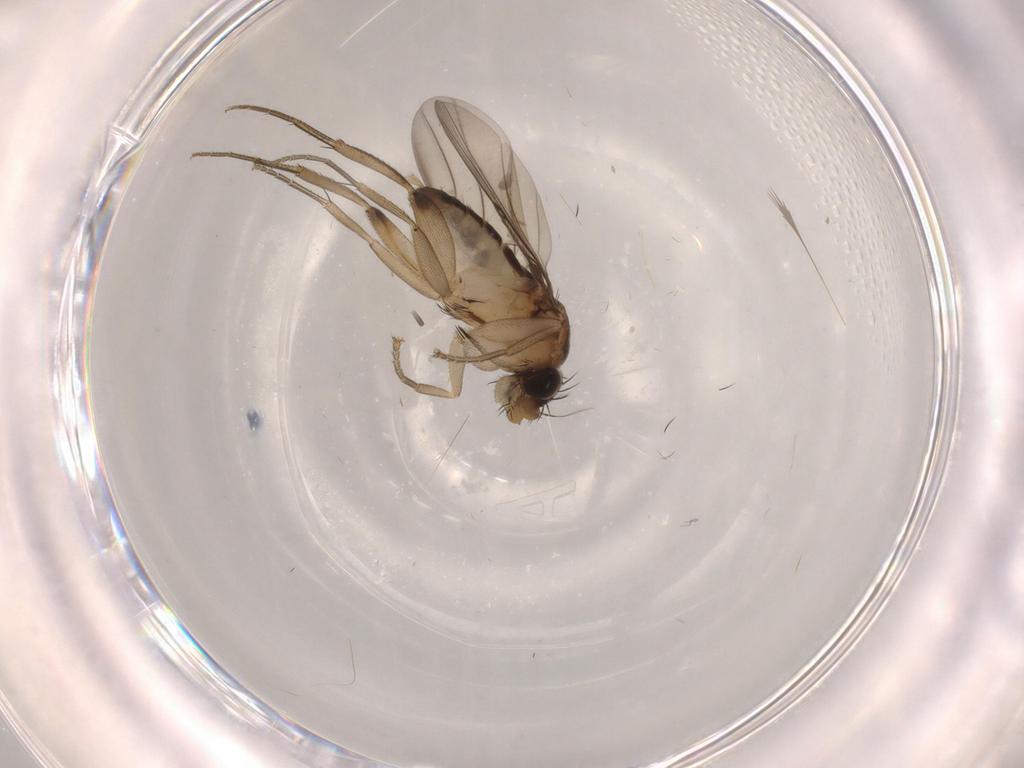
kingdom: Animalia
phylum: Arthropoda
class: Insecta
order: Diptera
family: Phoridae
